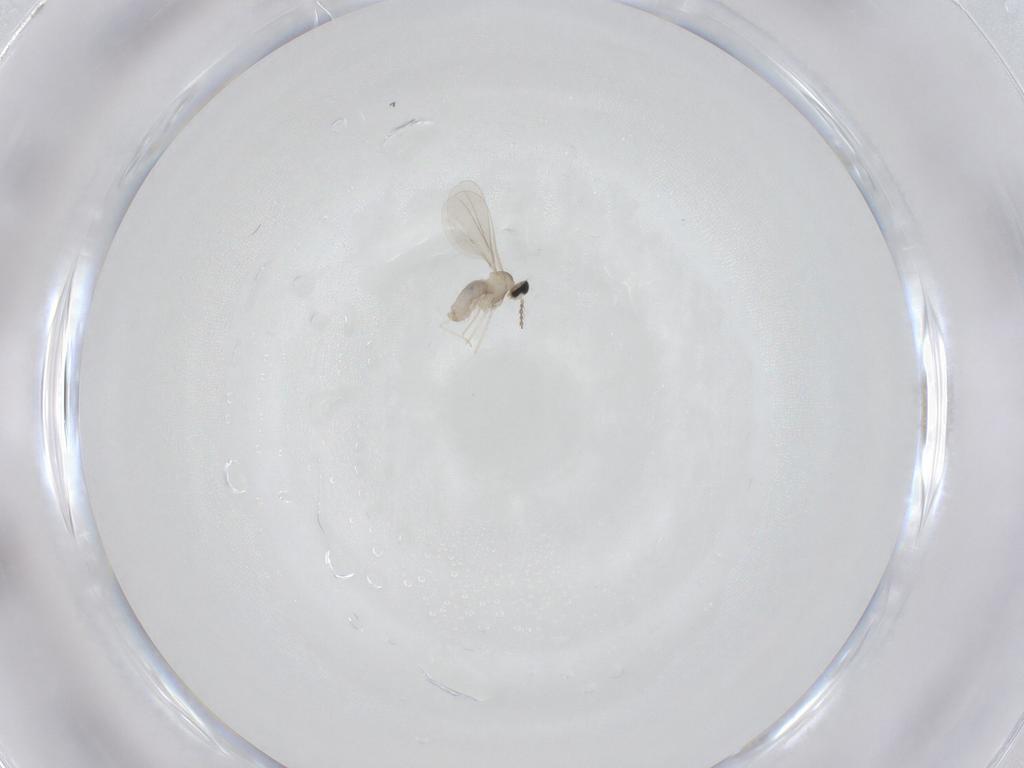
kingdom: Animalia
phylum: Arthropoda
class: Insecta
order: Diptera
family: Cecidomyiidae
